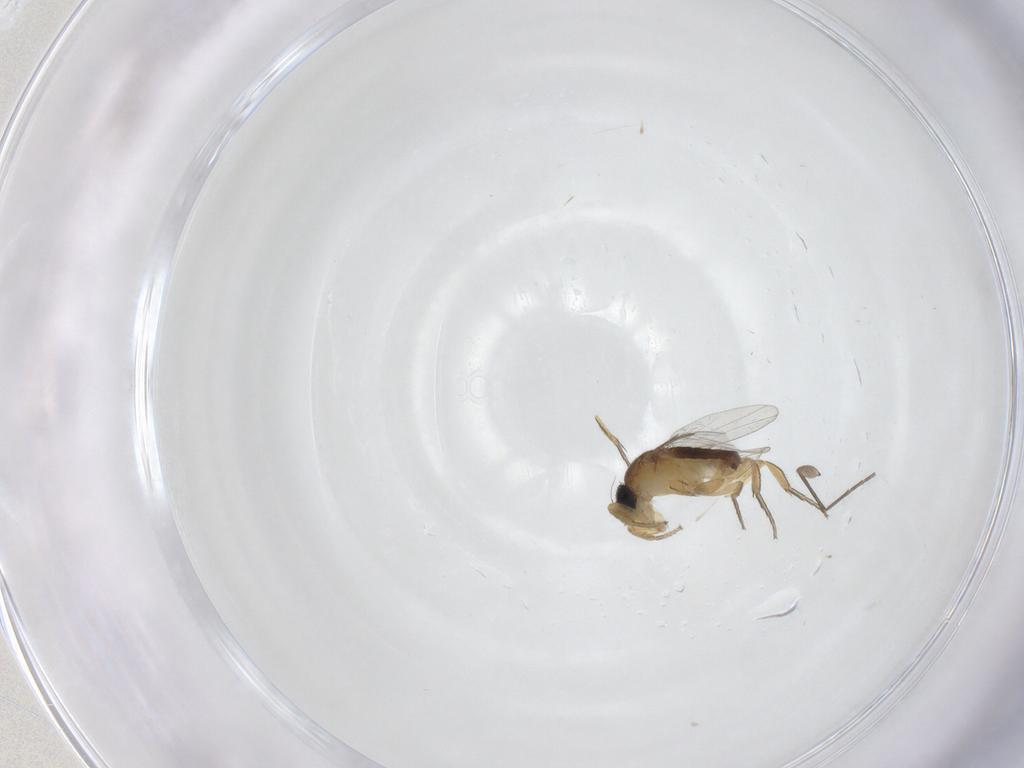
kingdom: Animalia
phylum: Arthropoda
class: Insecta
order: Diptera
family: Sciaridae
